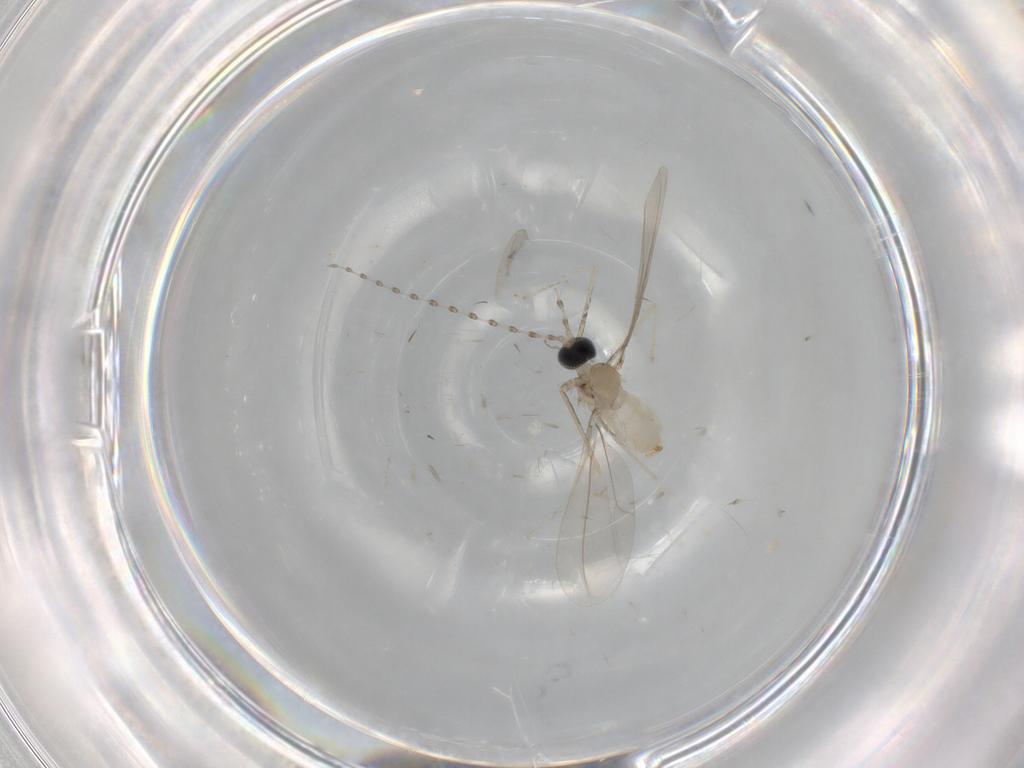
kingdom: Animalia
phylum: Arthropoda
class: Insecta
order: Diptera
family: Cecidomyiidae
